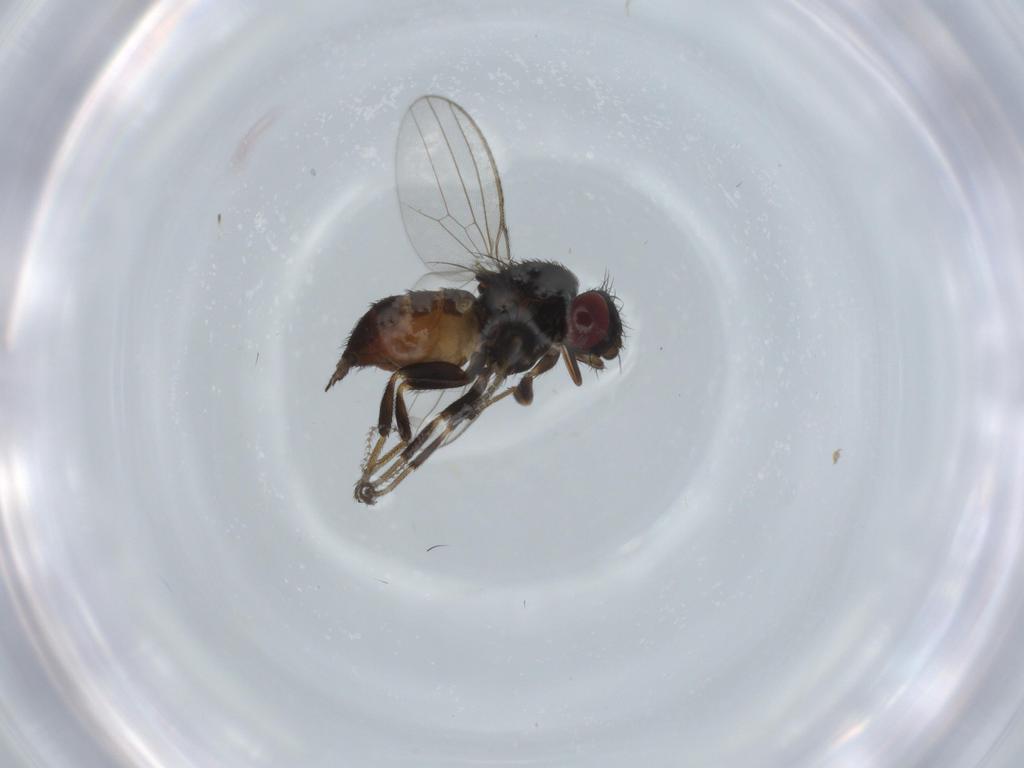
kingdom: Animalia
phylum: Arthropoda
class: Insecta
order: Diptera
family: Milichiidae
